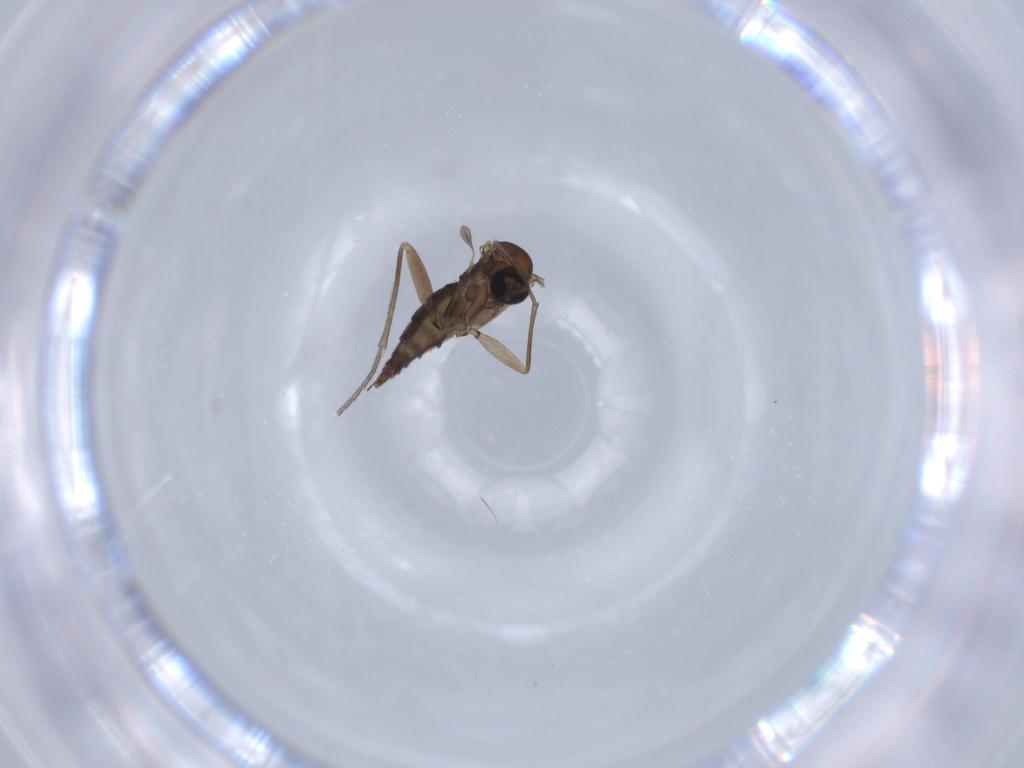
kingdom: Animalia
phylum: Arthropoda
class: Insecta
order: Diptera
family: Sciaridae
